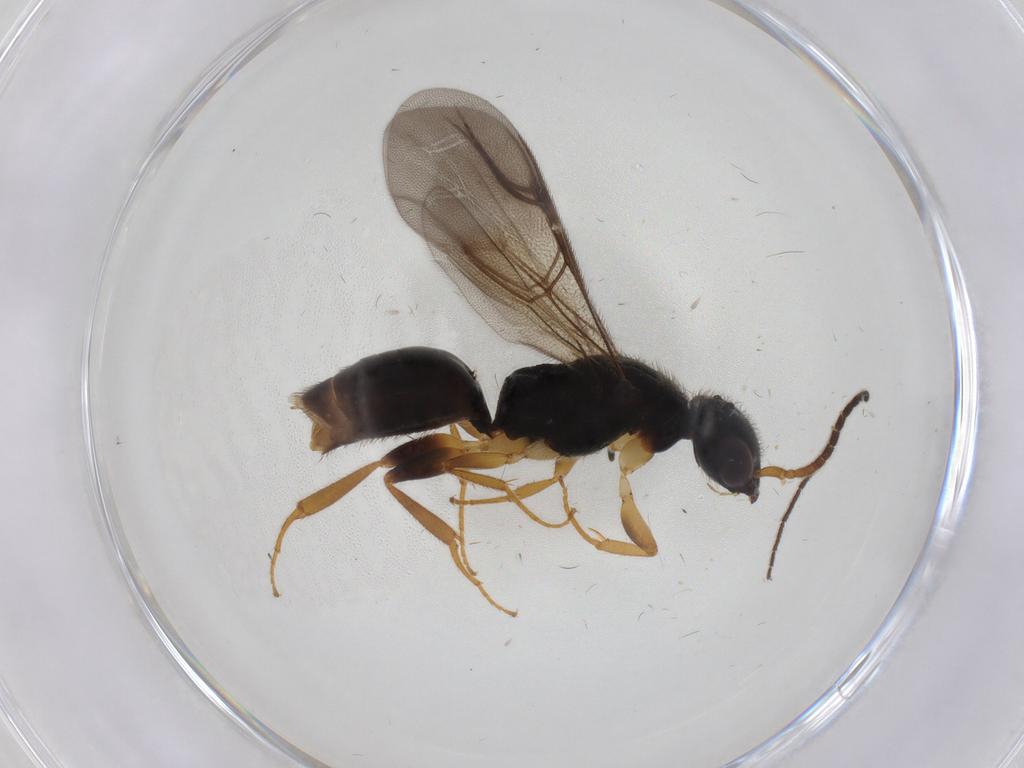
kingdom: Animalia
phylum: Arthropoda
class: Insecta
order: Hymenoptera
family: Bethylidae
